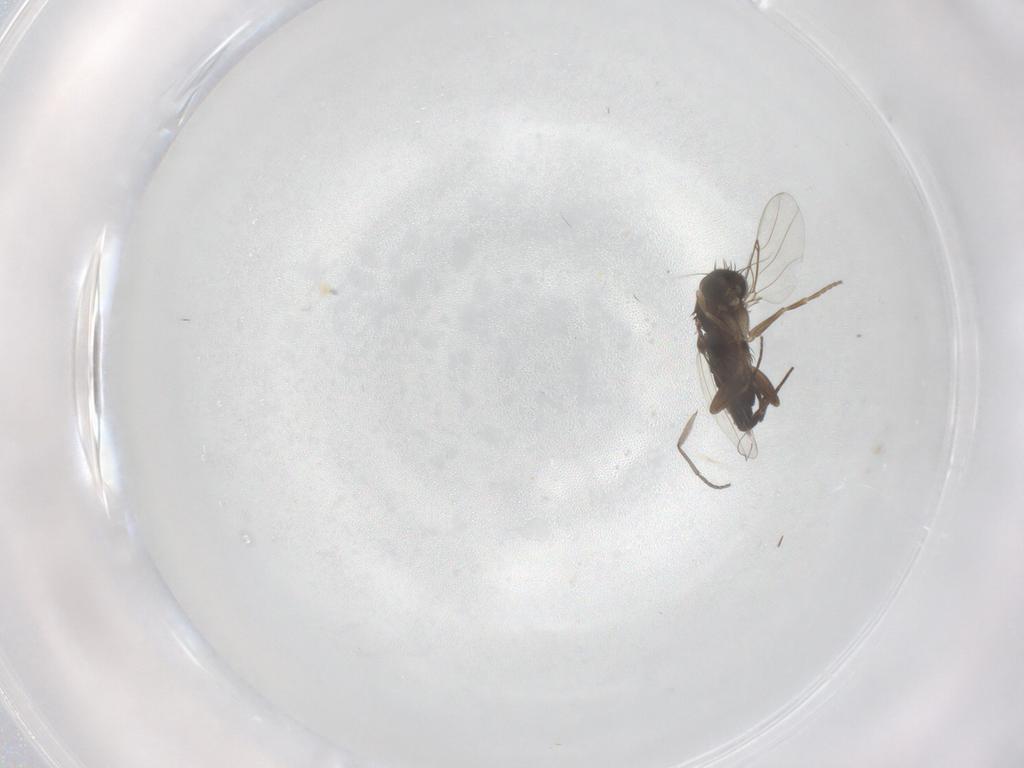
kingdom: Animalia
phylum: Arthropoda
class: Insecta
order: Diptera
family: Phoridae
